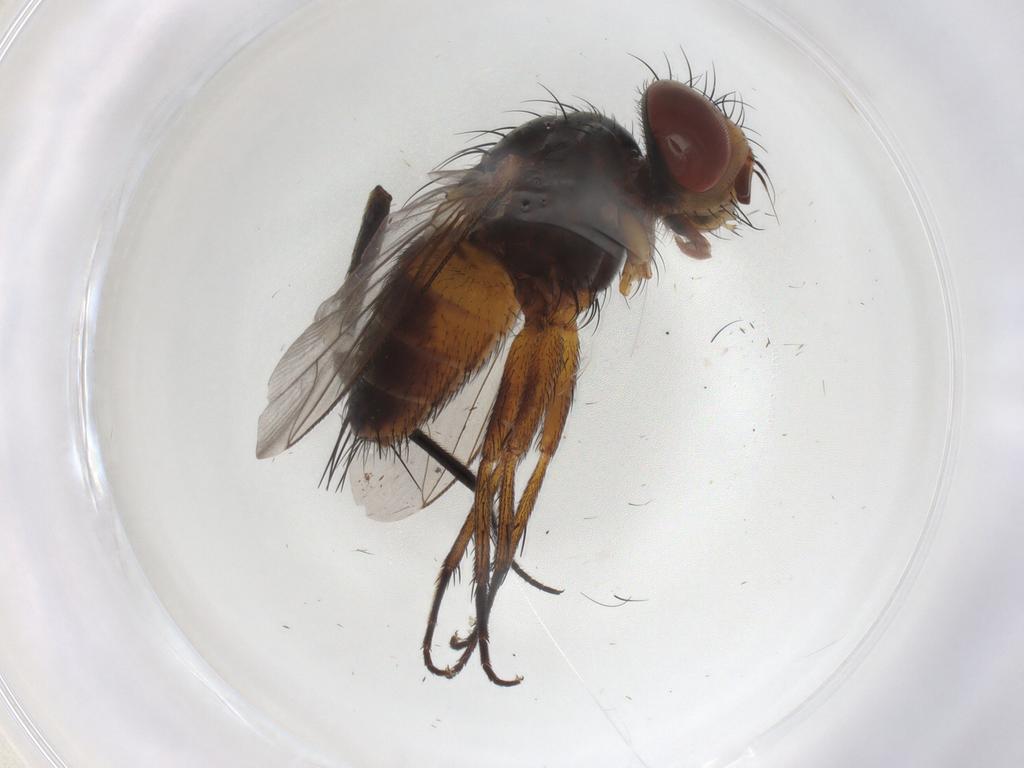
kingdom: Animalia
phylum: Arthropoda
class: Insecta
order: Diptera
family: Sarcophagidae
